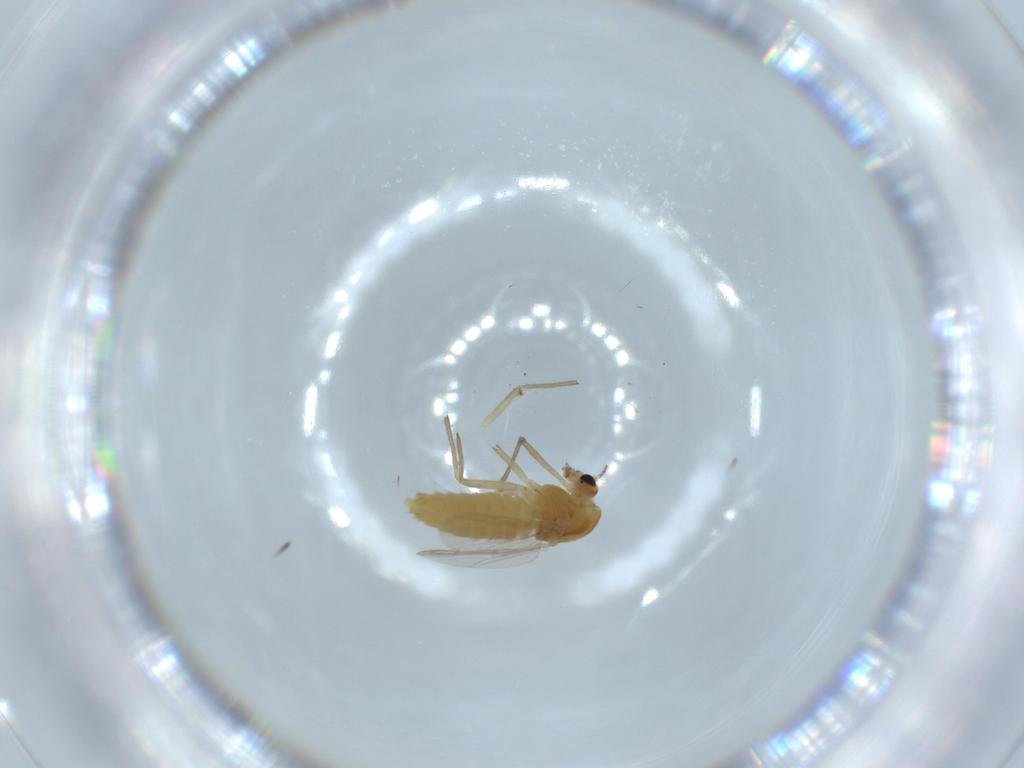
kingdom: Animalia
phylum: Arthropoda
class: Insecta
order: Diptera
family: Chironomidae
